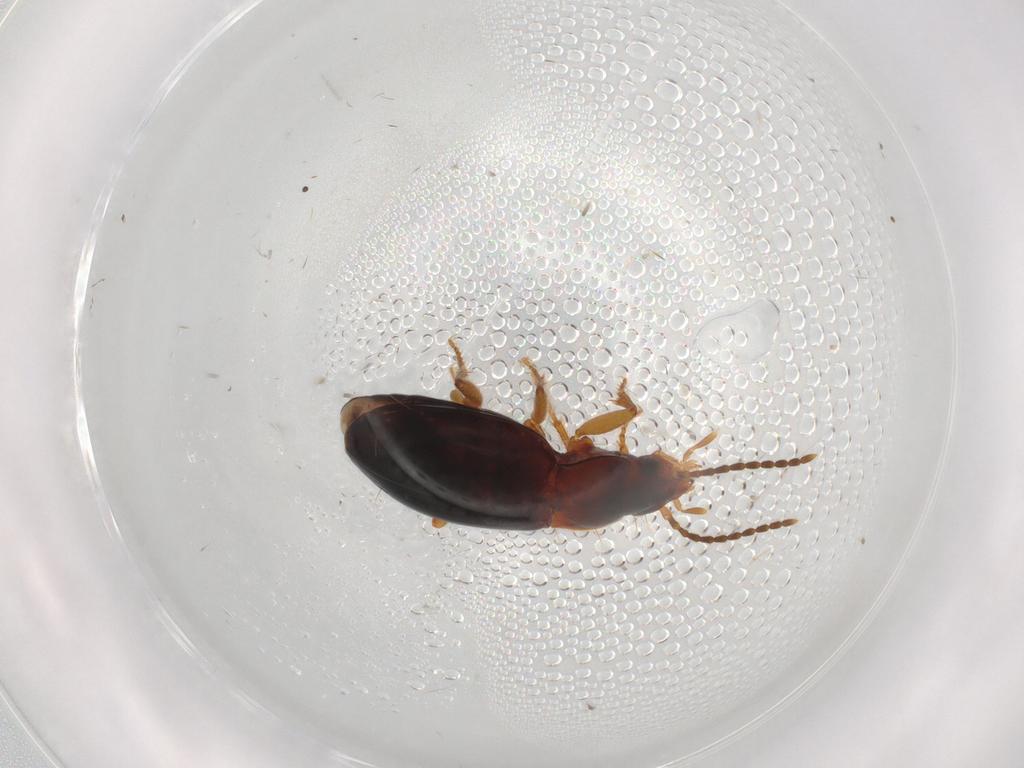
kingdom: Animalia
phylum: Arthropoda
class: Insecta
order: Coleoptera
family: Carabidae
